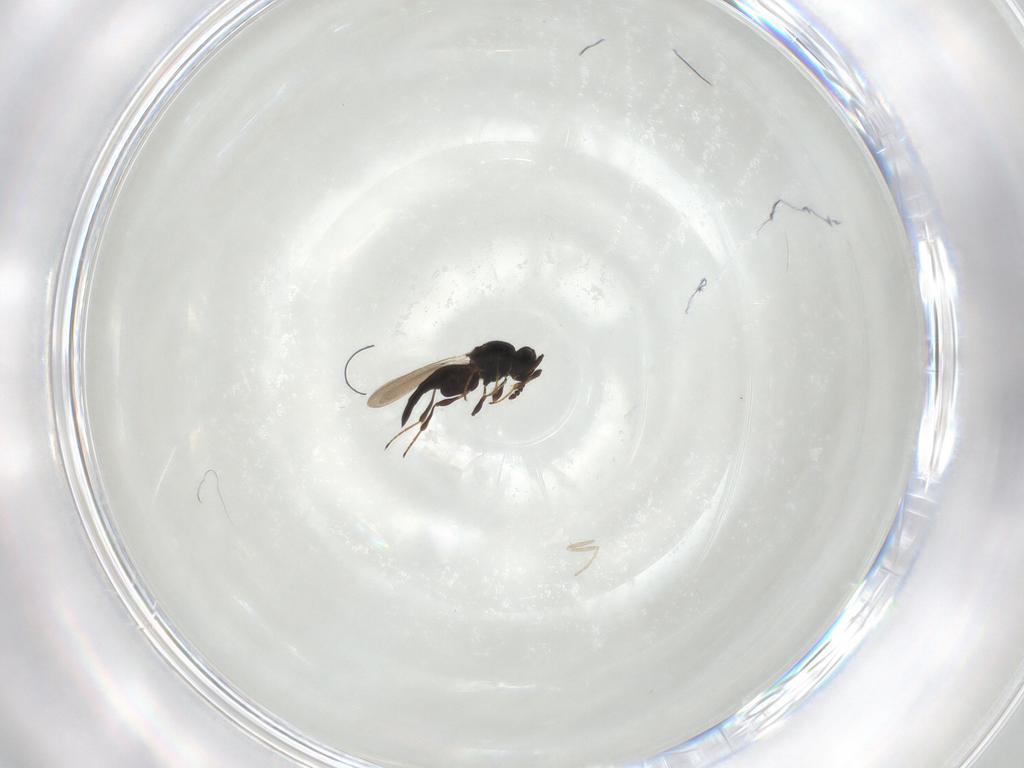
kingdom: Animalia
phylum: Arthropoda
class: Insecta
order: Hymenoptera
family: Platygastridae
